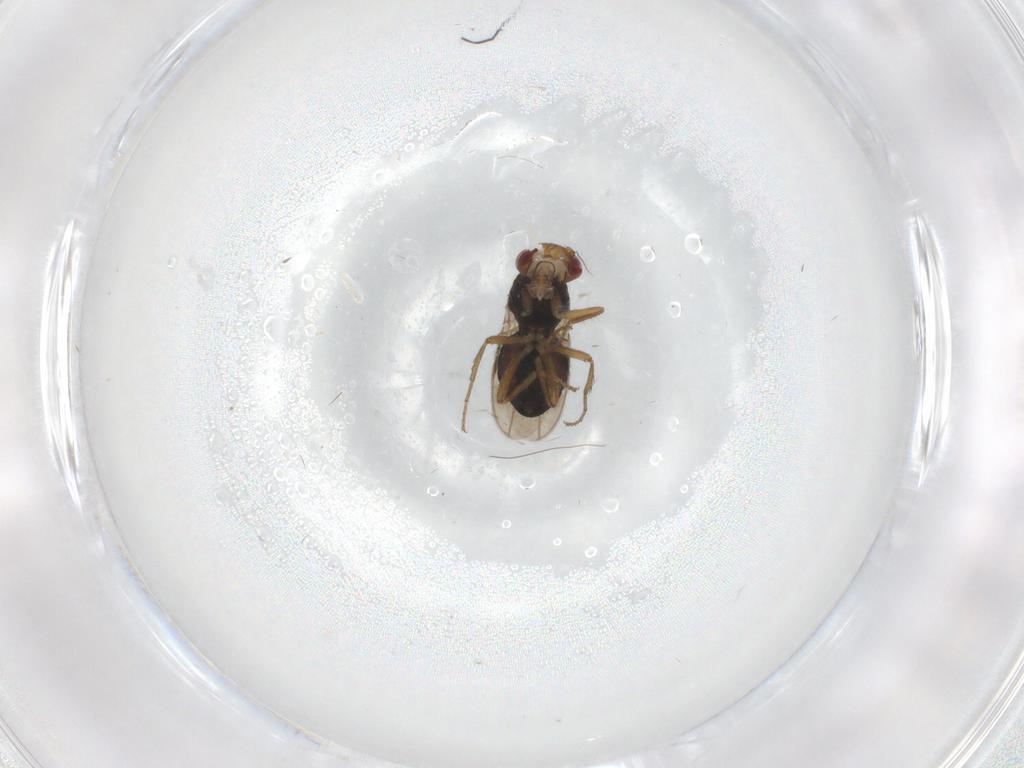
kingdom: Animalia
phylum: Arthropoda
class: Insecta
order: Diptera
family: Sphaeroceridae
